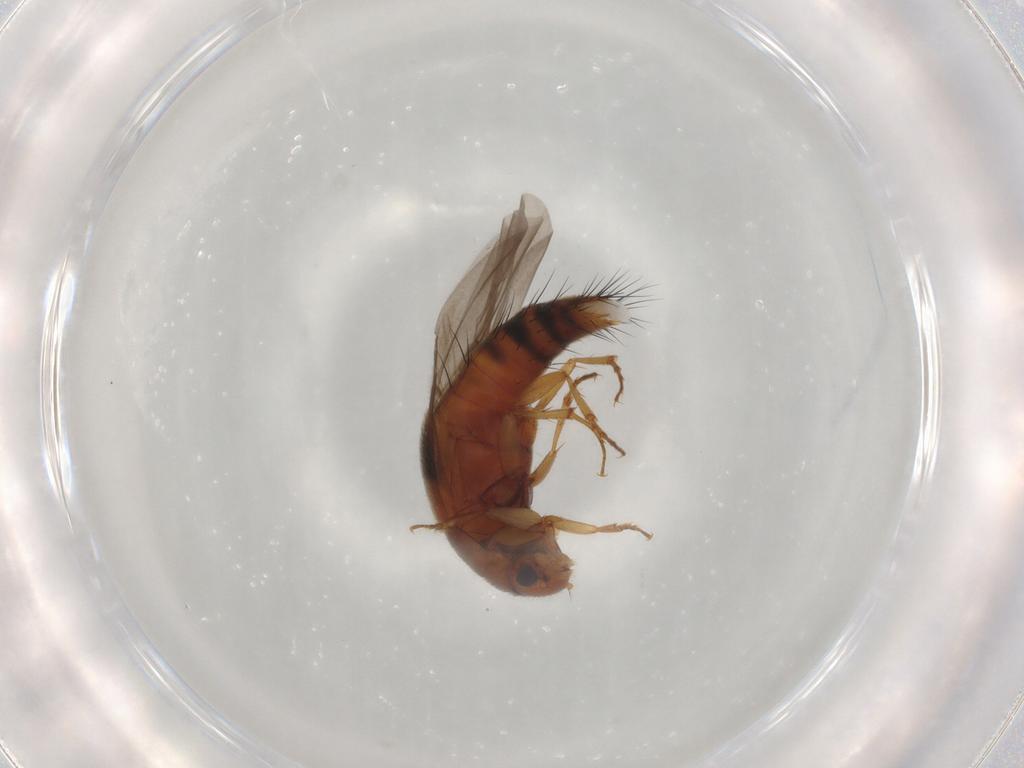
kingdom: Animalia
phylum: Arthropoda
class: Insecta
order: Coleoptera
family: Staphylinidae
